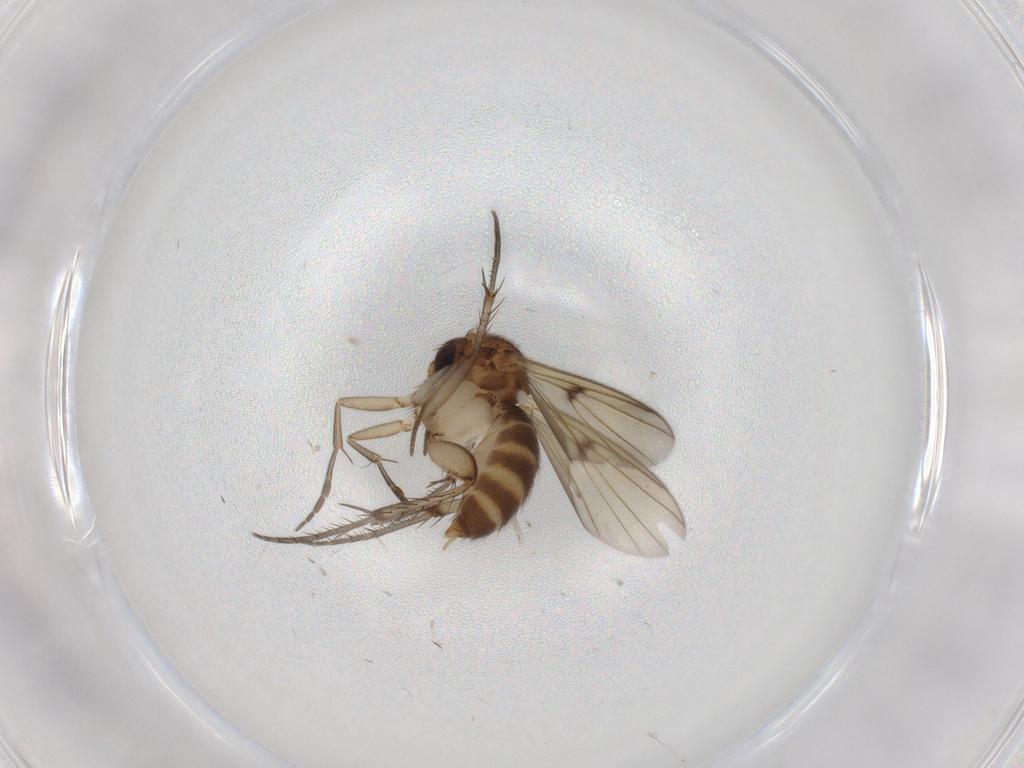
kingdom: Animalia
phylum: Arthropoda
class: Insecta
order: Diptera
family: Mycetophilidae
